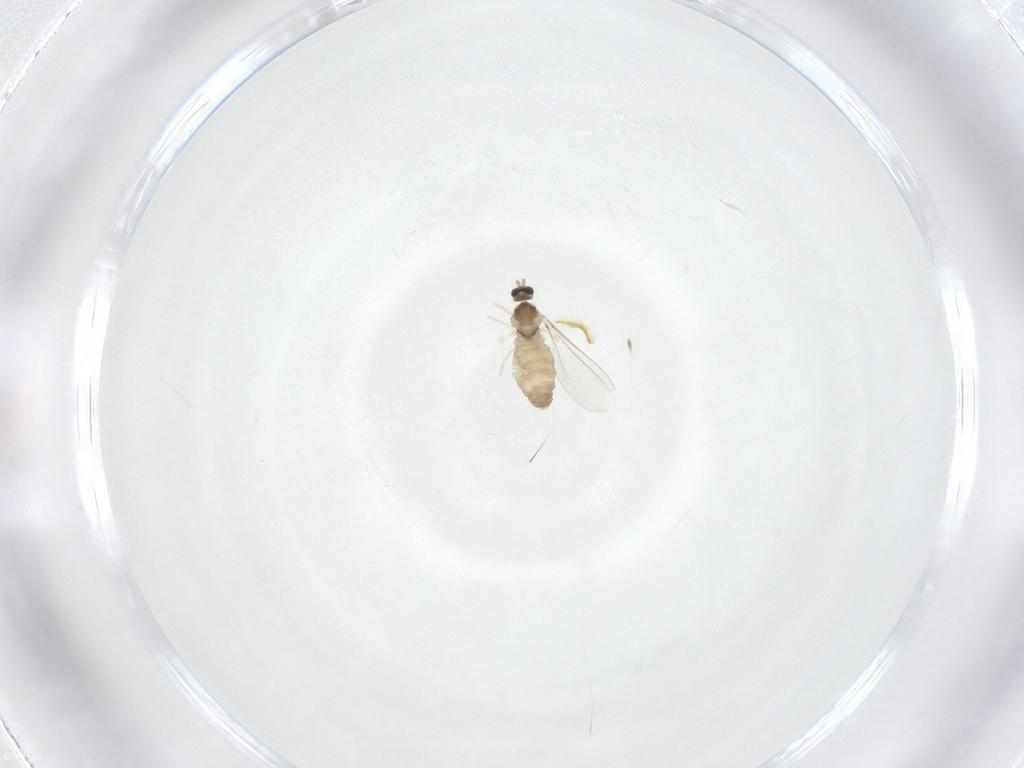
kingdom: Animalia
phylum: Arthropoda
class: Insecta
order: Diptera
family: Cecidomyiidae
